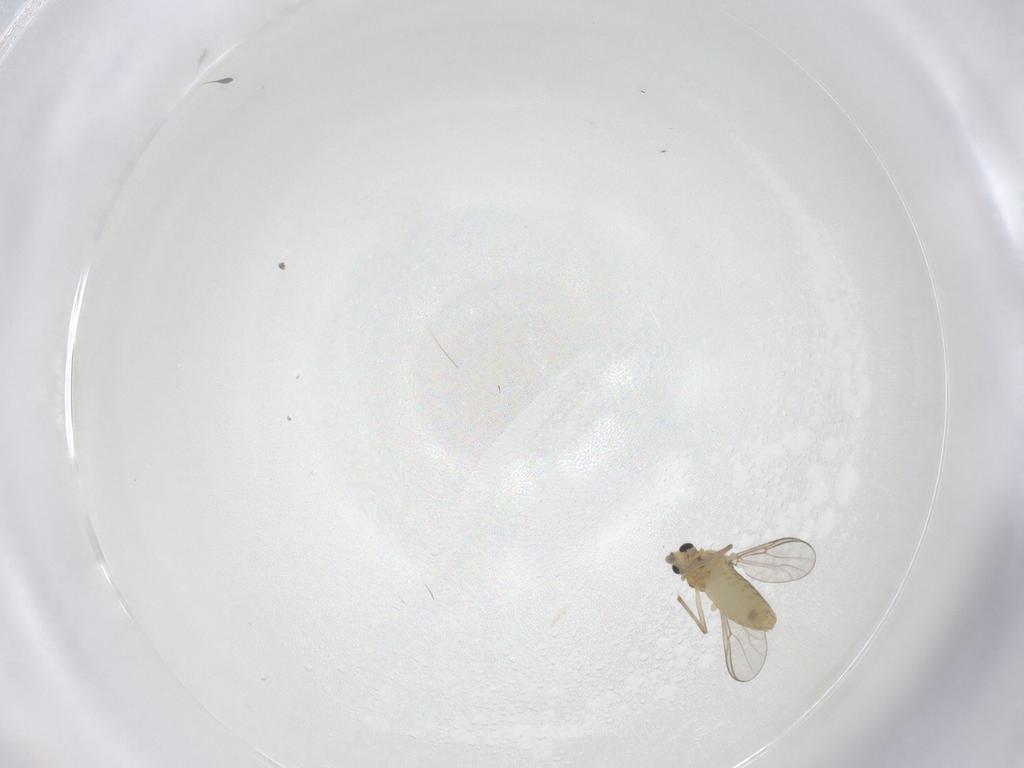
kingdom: Animalia
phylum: Arthropoda
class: Insecta
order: Diptera
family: Chironomidae
